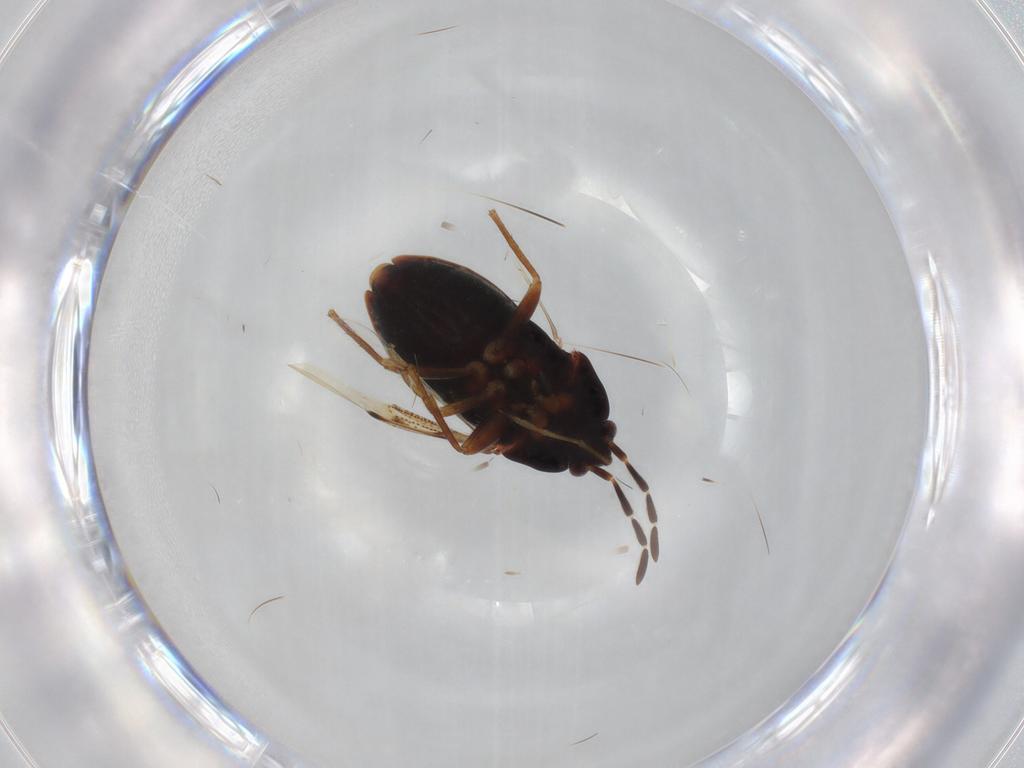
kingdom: Animalia
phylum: Arthropoda
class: Insecta
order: Hemiptera
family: Rhyparochromidae
